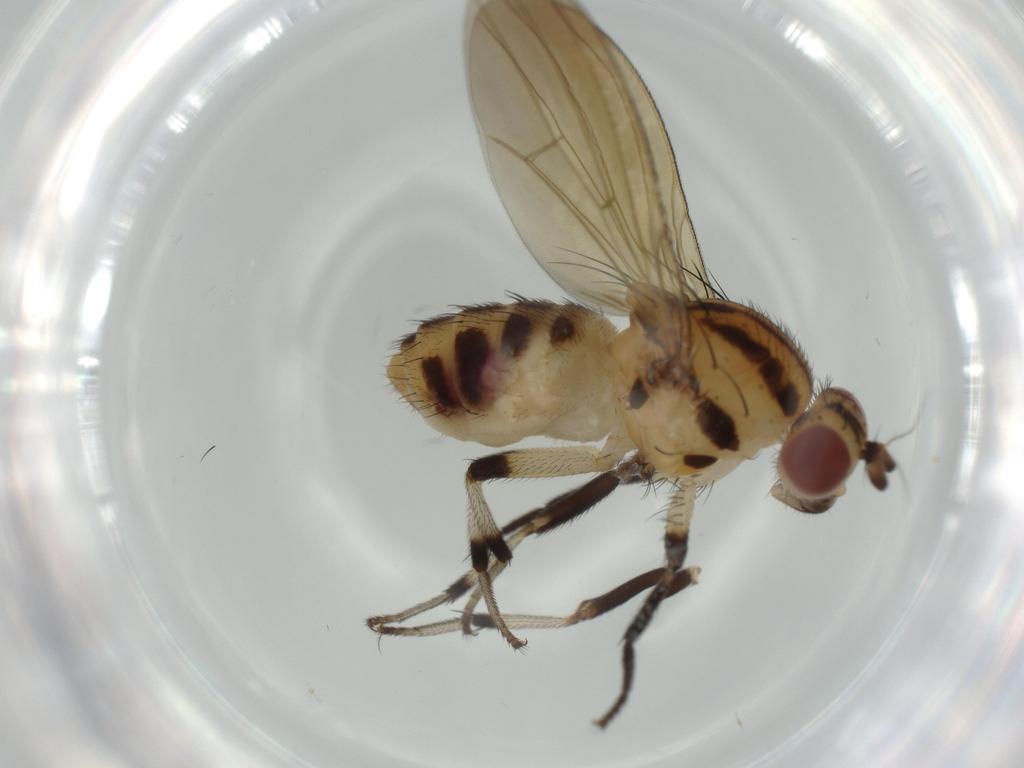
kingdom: Animalia
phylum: Arthropoda
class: Insecta
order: Diptera
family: Lauxaniidae
